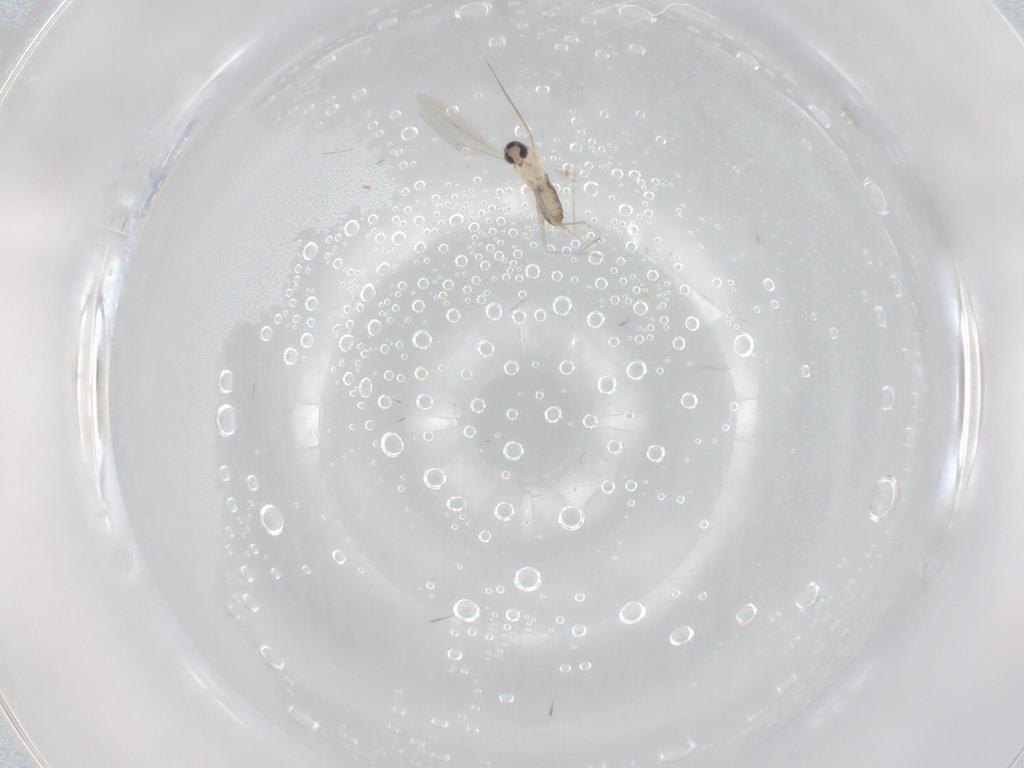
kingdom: Animalia
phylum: Arthropoda
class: Insecta
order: Diptera
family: Cecidomyiidae
